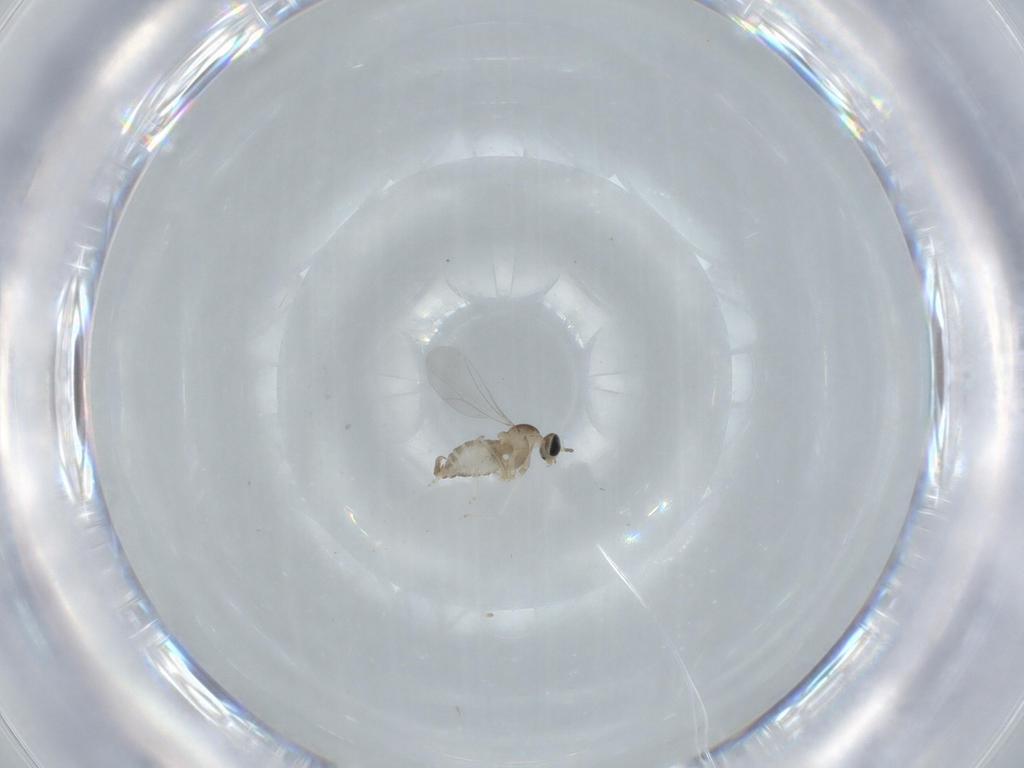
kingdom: Animalia
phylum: Arthropoda
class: Insecta
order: Diptera
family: Cecidomyiidae
